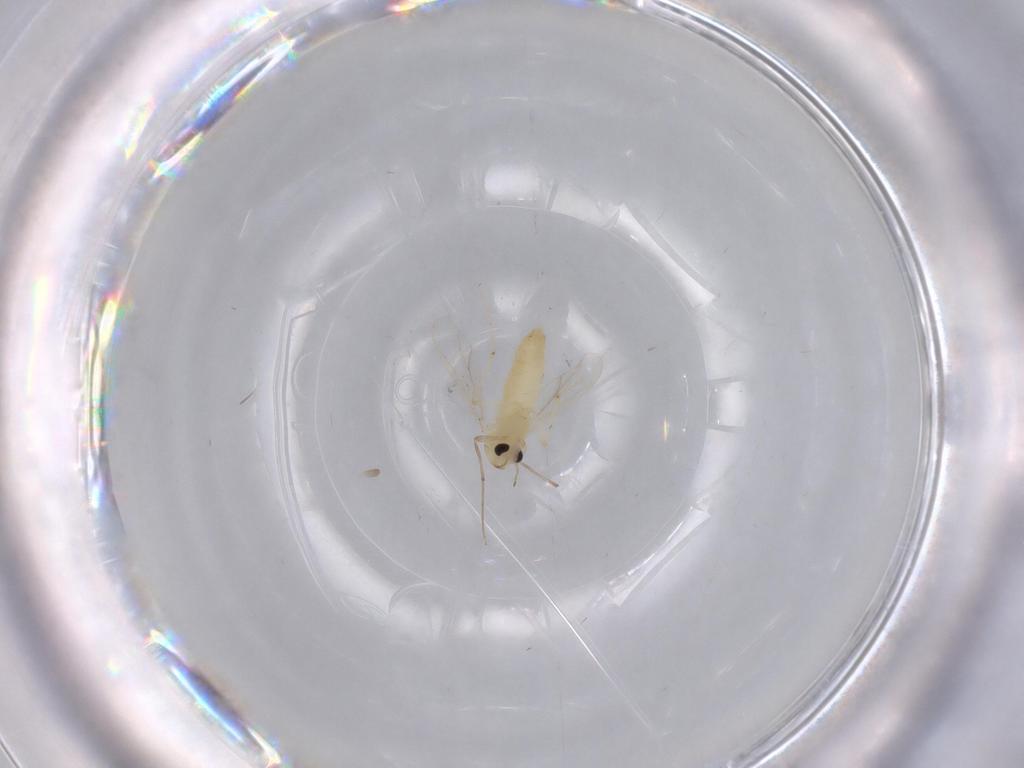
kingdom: Animalia
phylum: Arthropoda
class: Insecta
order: Diptera
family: Chironomidae
